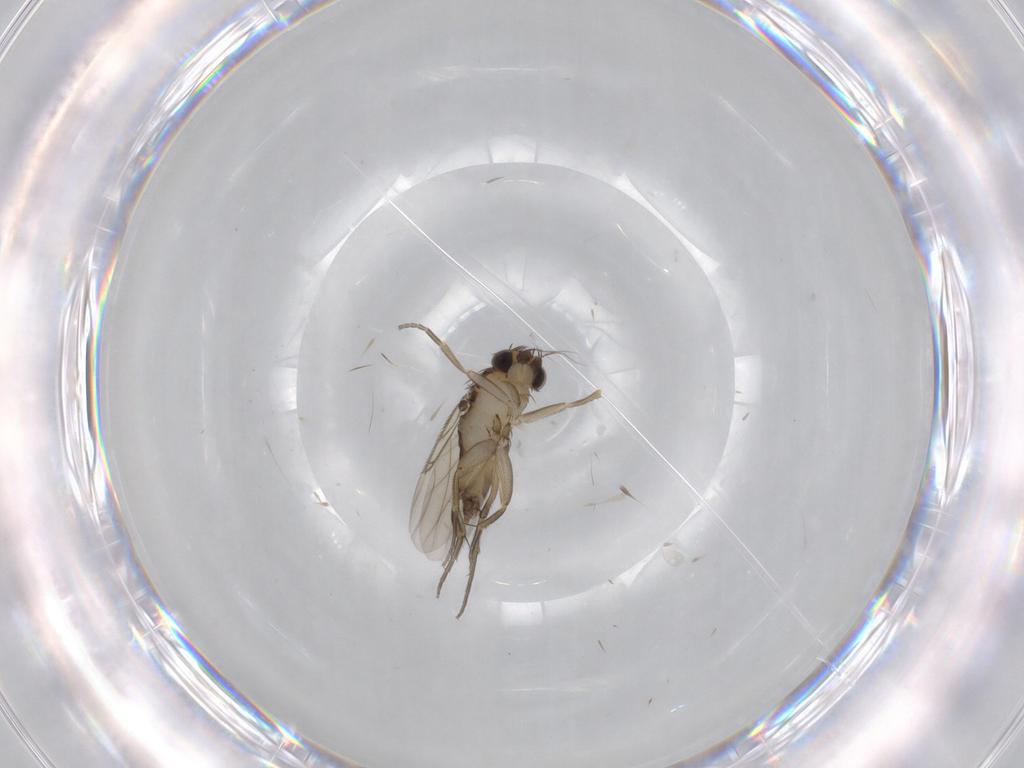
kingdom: Animalia
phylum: Arthropoda
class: Insecta
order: Diptera
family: Phoridae
